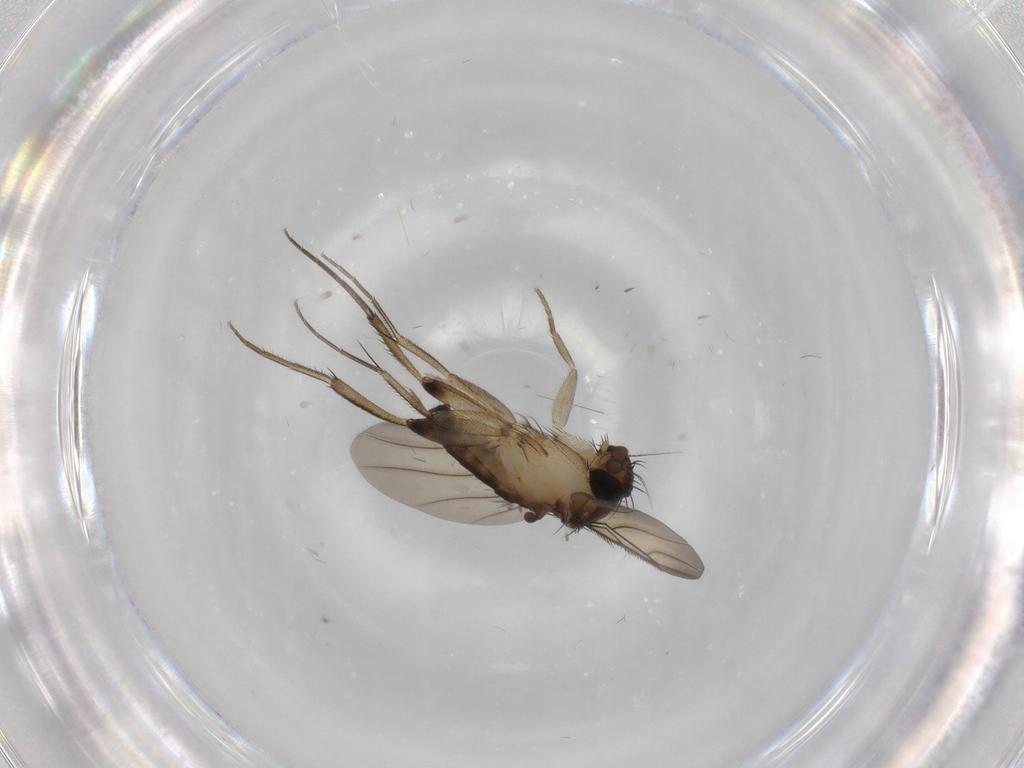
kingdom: Animalia
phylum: Arthropoda
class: Insecta
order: Diptera
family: Phoridae
